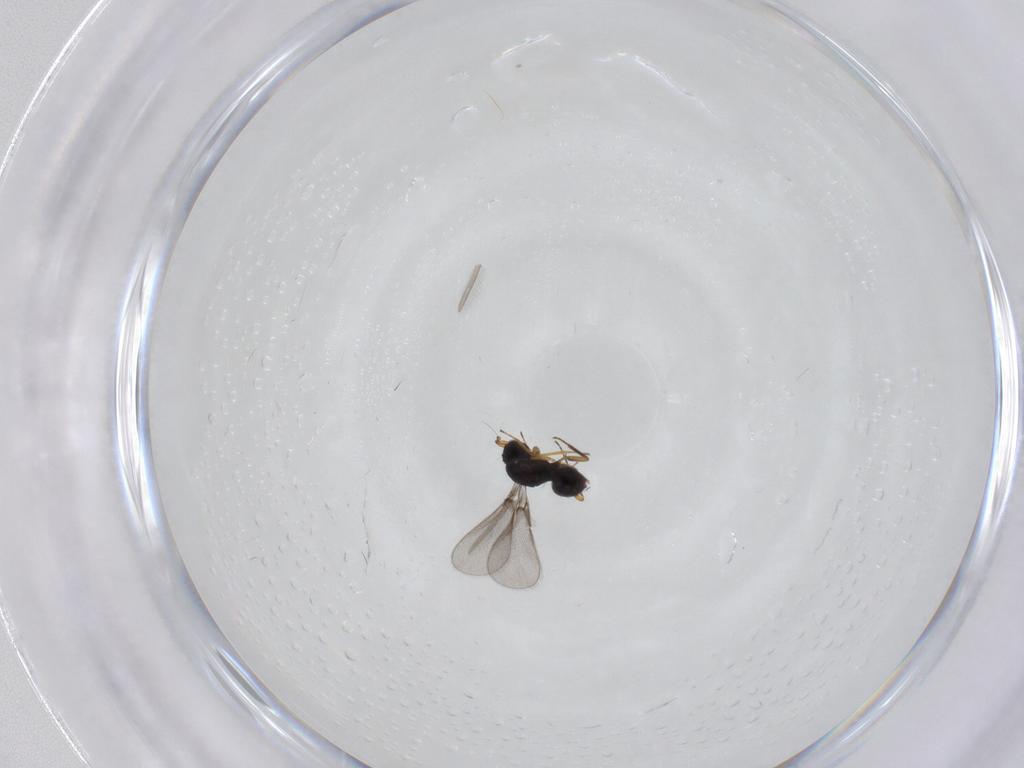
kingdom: Animalia
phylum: Arthropoda
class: Insecta
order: Hymenoptera
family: Mymaridae
